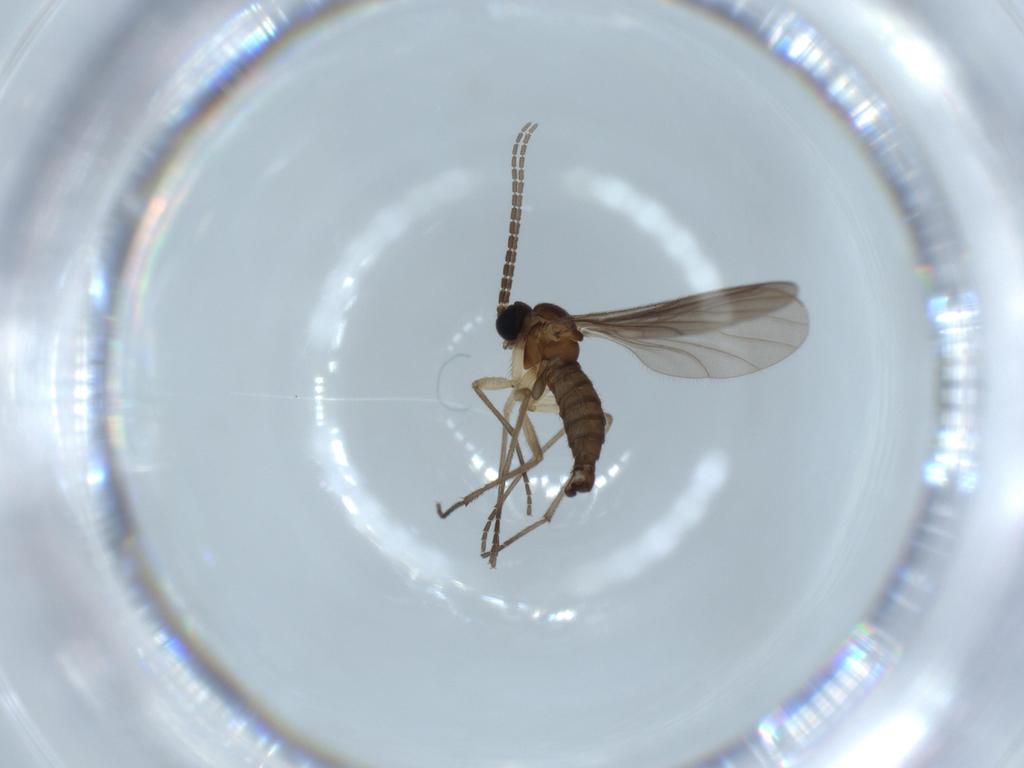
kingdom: Animalia
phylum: Arthropoda
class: Insecta
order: Diptera
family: Sciaridae
